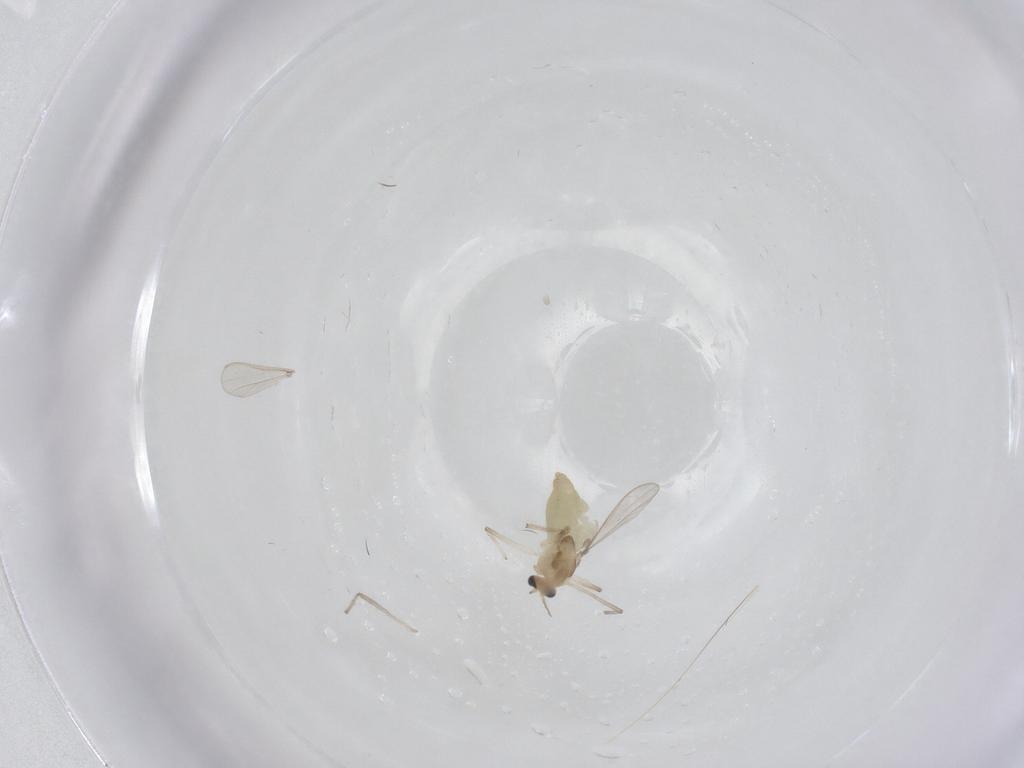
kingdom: Animalia
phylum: Arthropoda
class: Insecta
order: Diptera
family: Chironomidae
